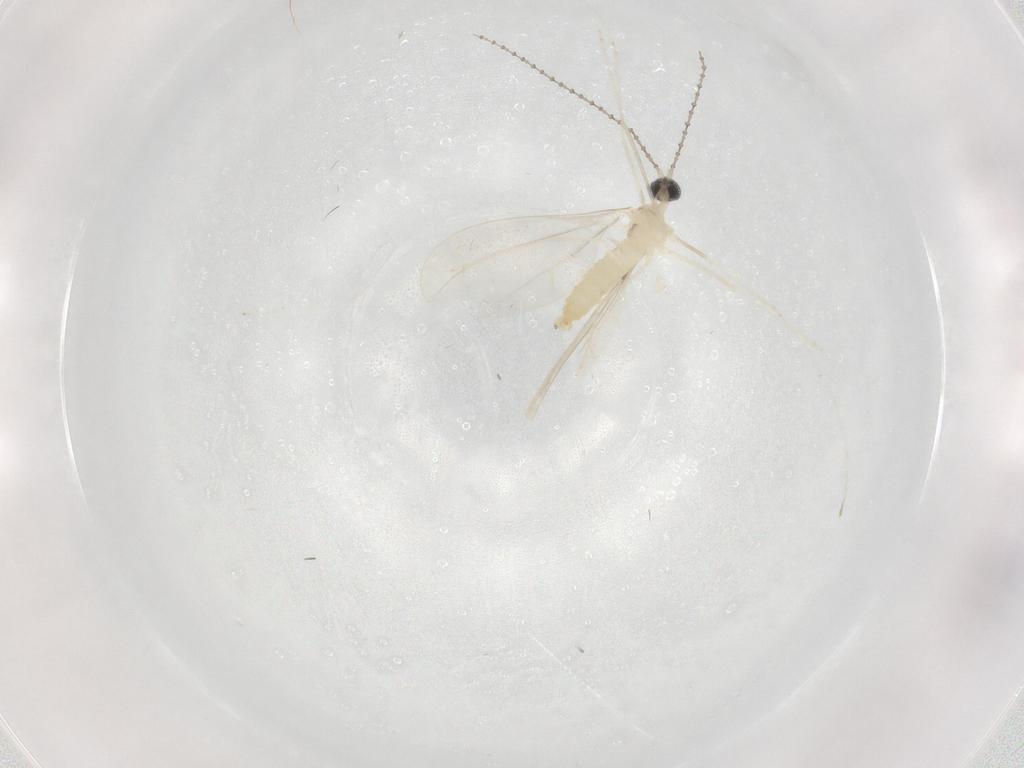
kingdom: Animalia
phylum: Arthropoda
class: Insecta
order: Diptera
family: Cecidomyiidae
